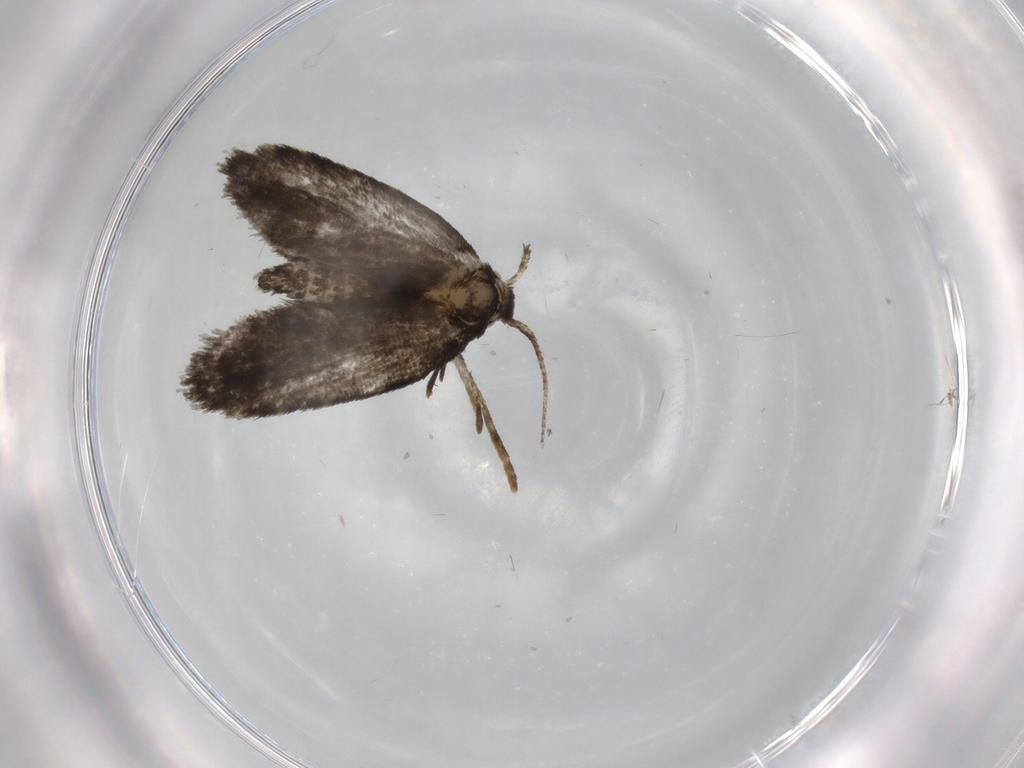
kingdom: Animalia
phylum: Arthropoda
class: Insecta
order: Lepidoptera
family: Psychidae
